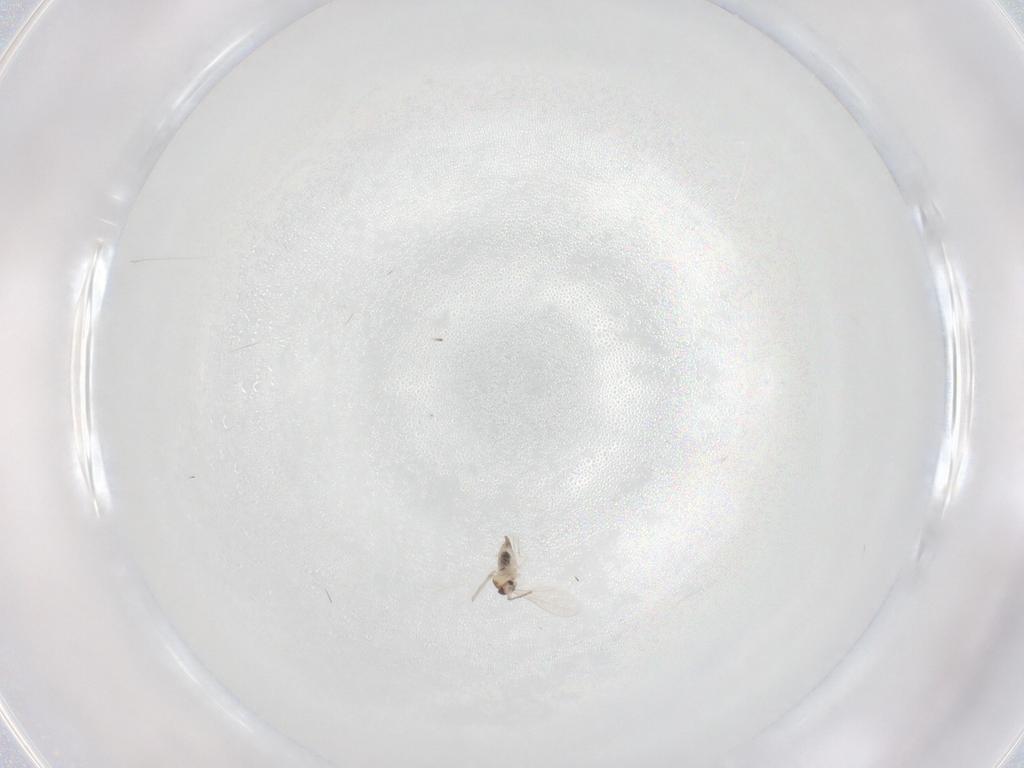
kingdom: Animalia
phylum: Arthropoda
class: Insecta
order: Diptera
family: Cecidomyiidae
